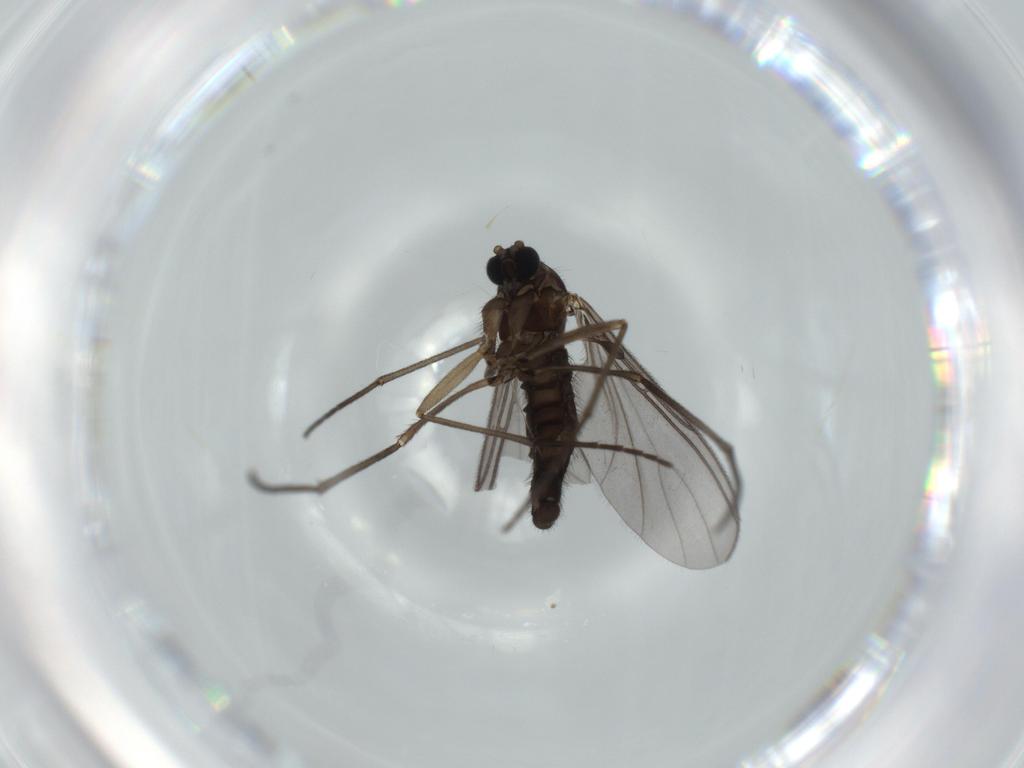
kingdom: Animalia
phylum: Arthropoda
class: Insecta
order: Diptera
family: Sciaridae
